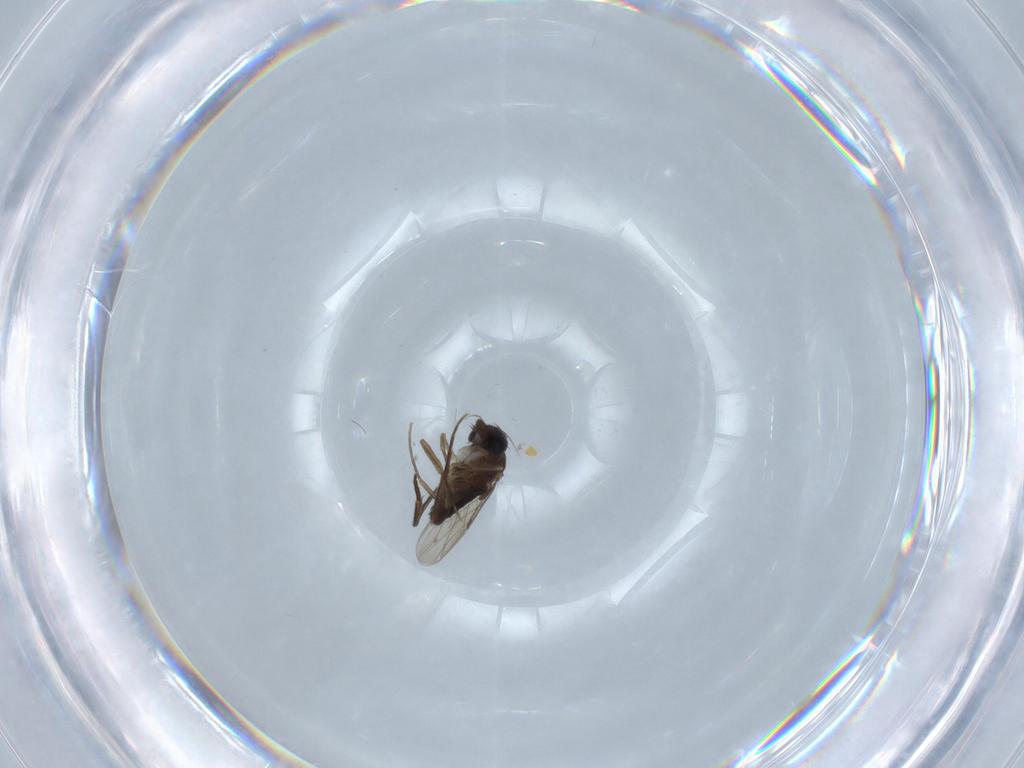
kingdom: Animalia
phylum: Arthropoda
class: Insecta
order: Diptera
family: Phoridae
